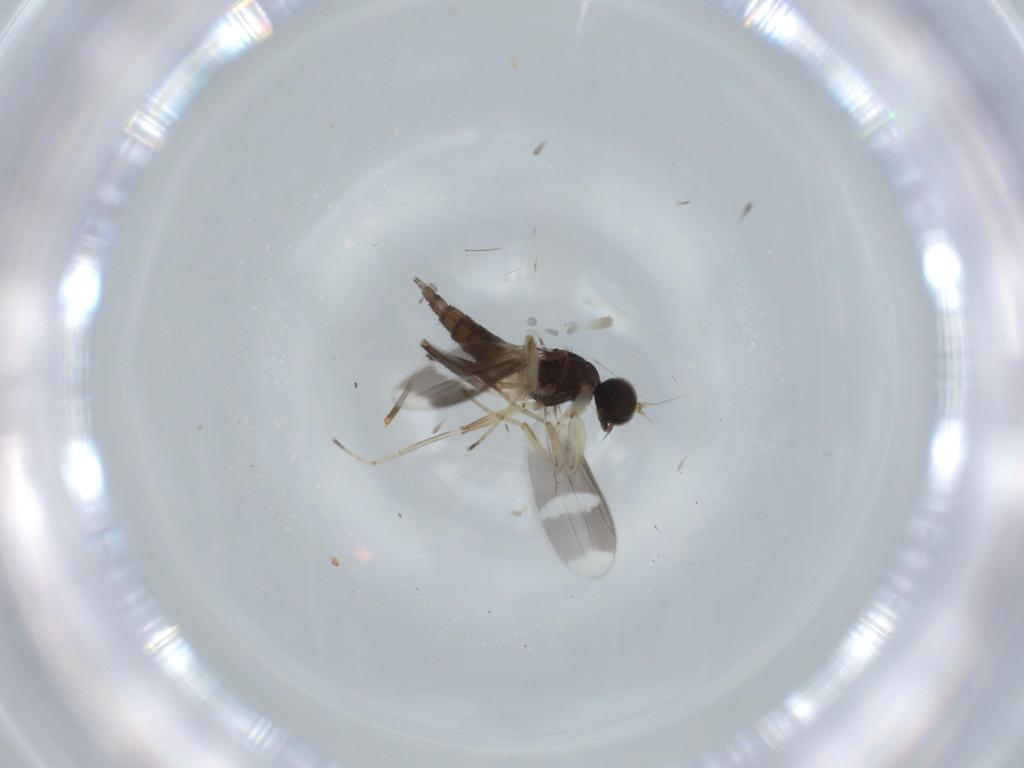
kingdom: Animalia
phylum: Arthropoda
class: Insecta
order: Diptera
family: Hybotidae
